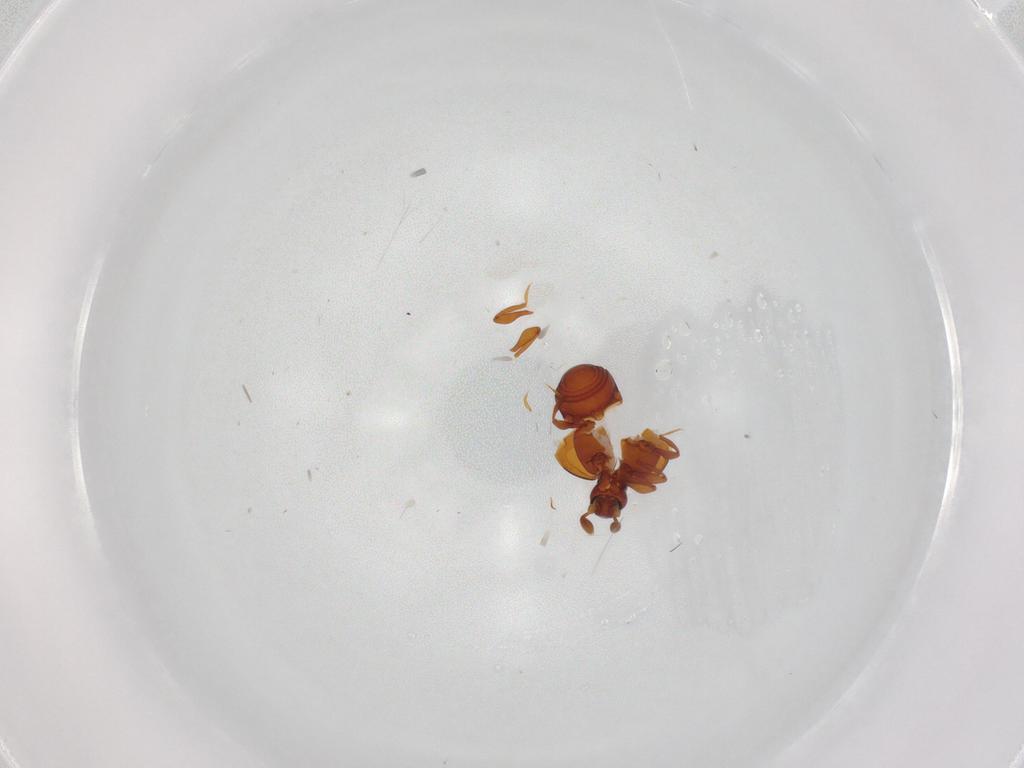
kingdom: Animalia
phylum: Arthropoda
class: Insecta
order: Coleoptera
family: Staphylinidae
